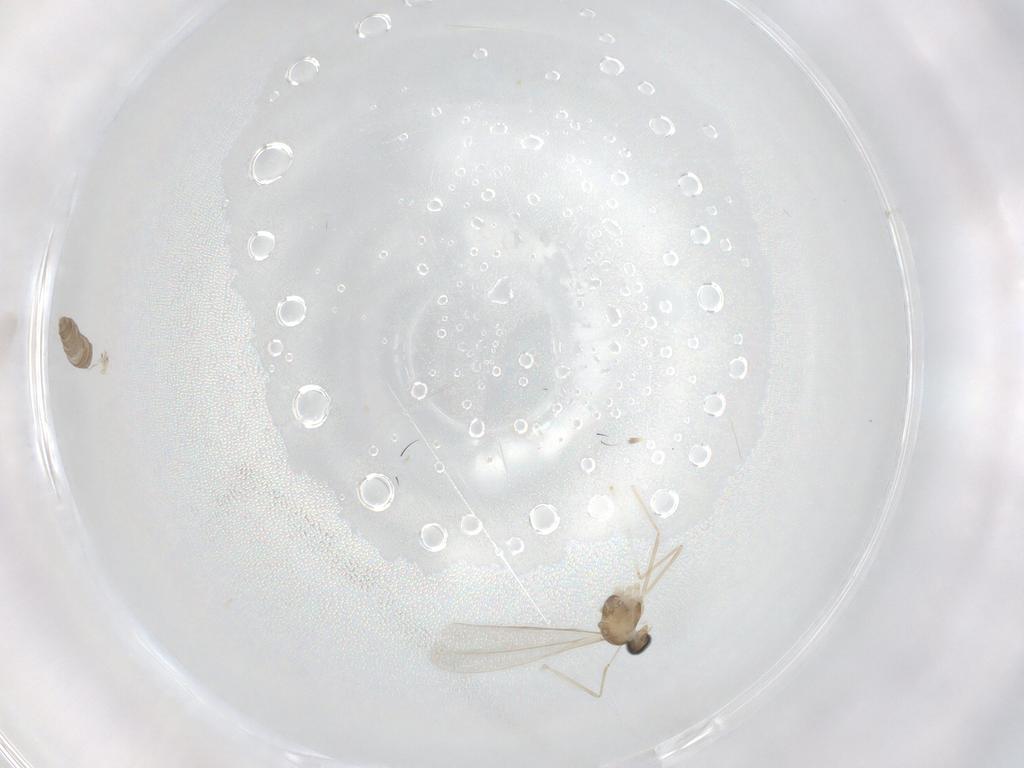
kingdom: Animalia
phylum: Arthropoda
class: Insecta
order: Diptera
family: Cecidomyiidae
